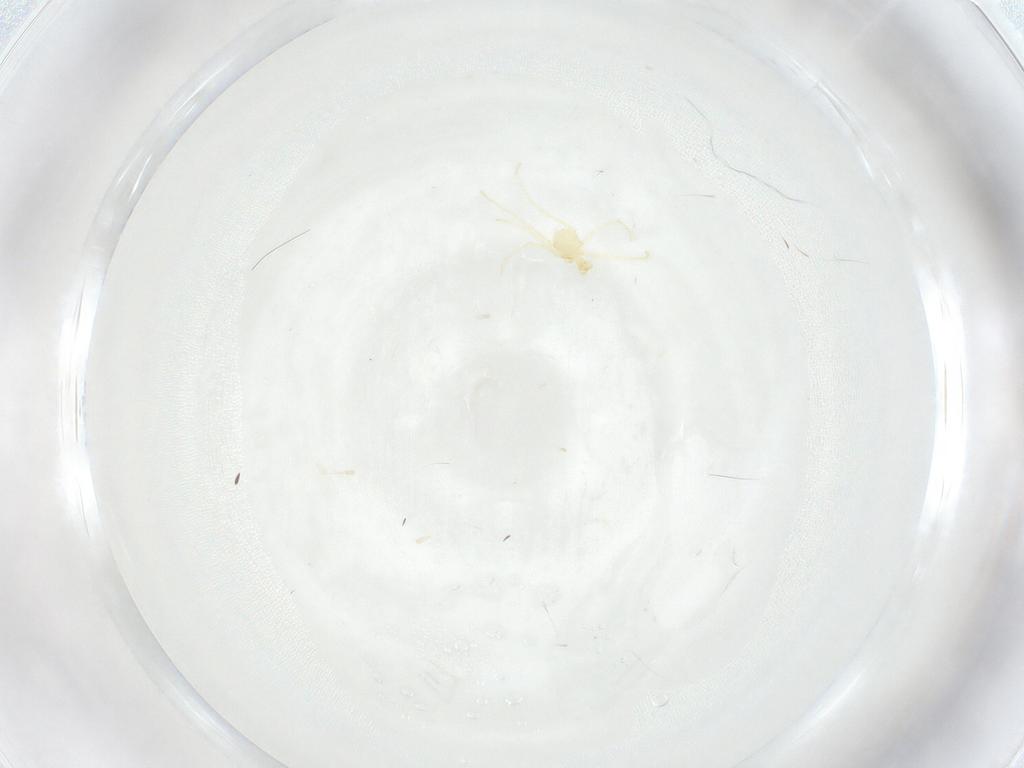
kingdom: Animalia
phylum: Arthropoda
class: Arachnida
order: Trombidiformes
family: Erythraeidae
